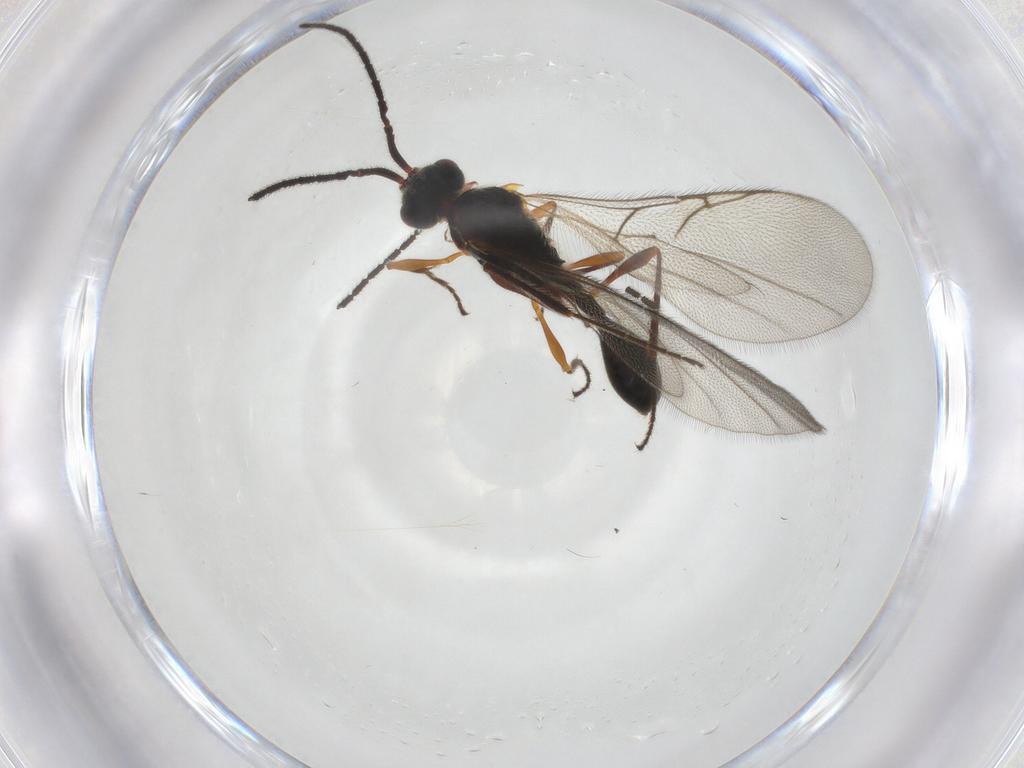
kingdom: Animalia
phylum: Arthropoda
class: Insecta
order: Hymenoptera
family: Diapriidae
